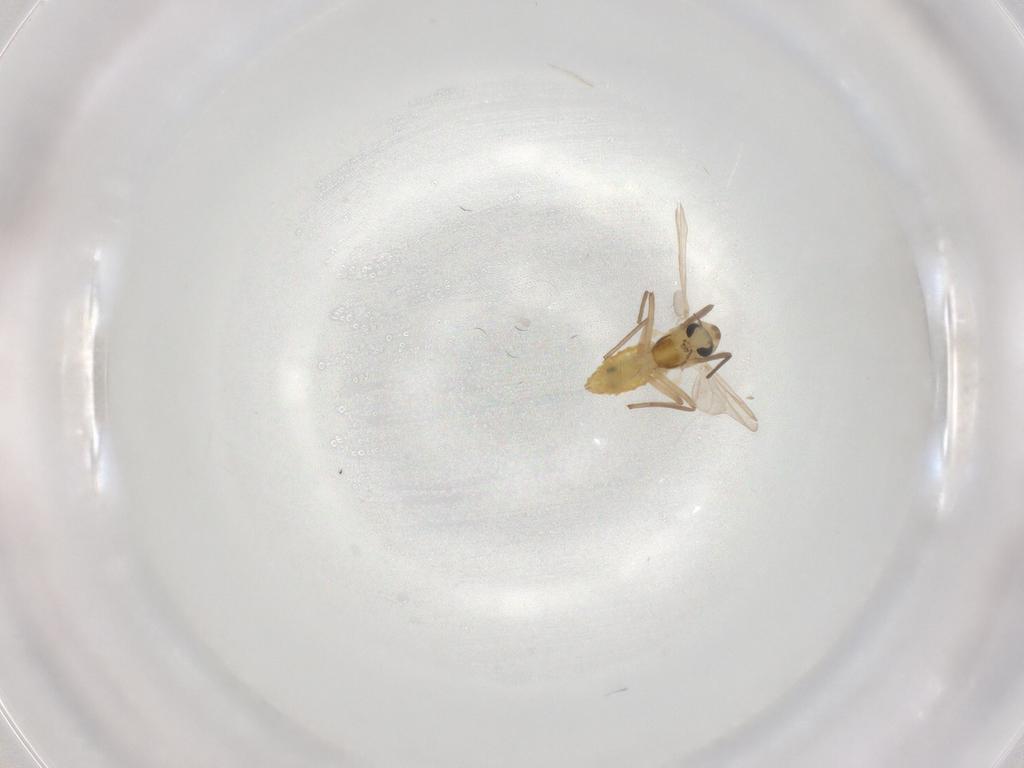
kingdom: Animalia
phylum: Arthropoda
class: Insecta
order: Diptera
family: Chironomidae
